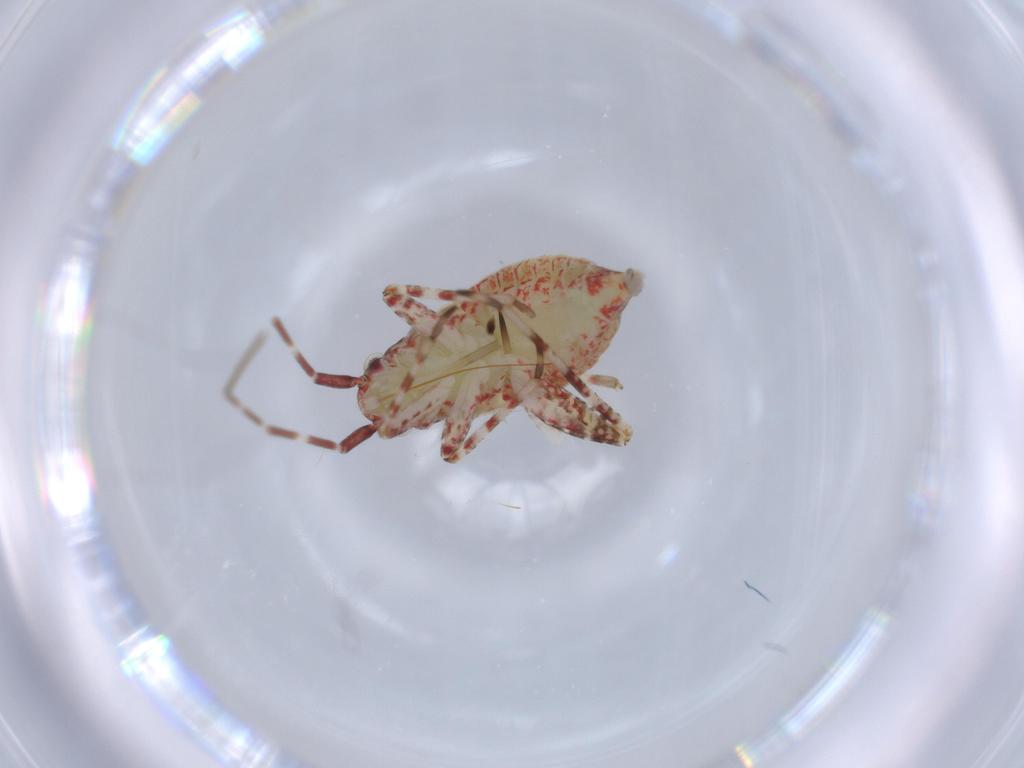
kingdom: Animalia
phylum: Arthropoda
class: Insecta
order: Hemiptera
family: Miridae
